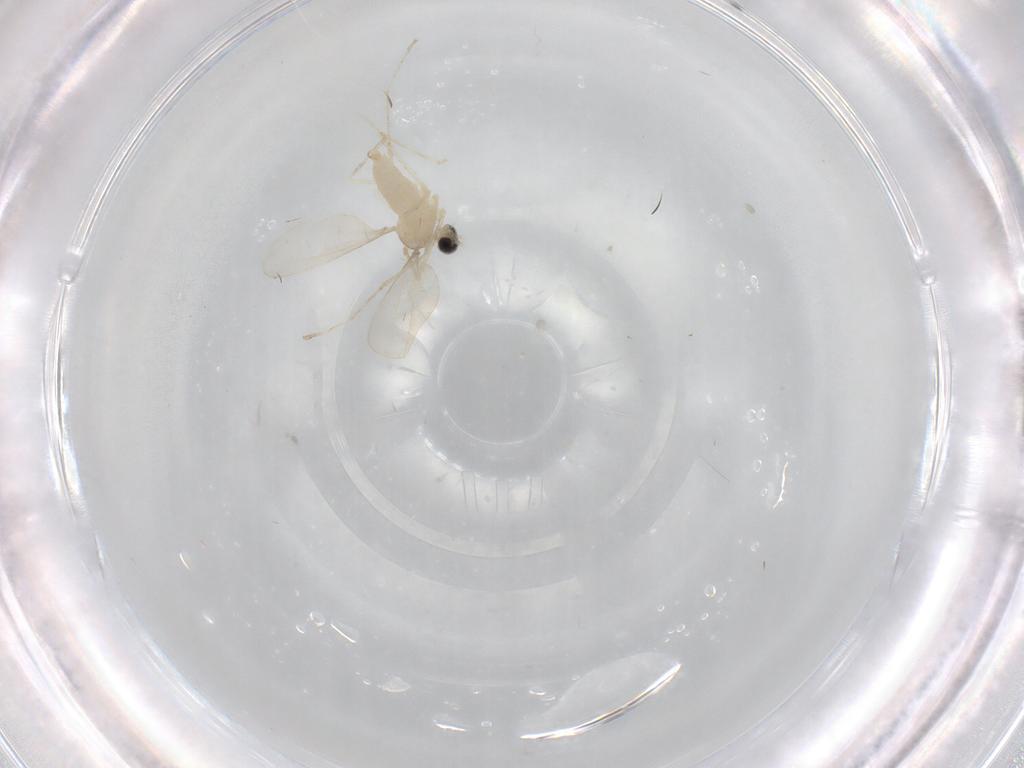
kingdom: Animalia
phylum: Arthropoda
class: Insecta
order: Diptera
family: Cecidomyiidae
